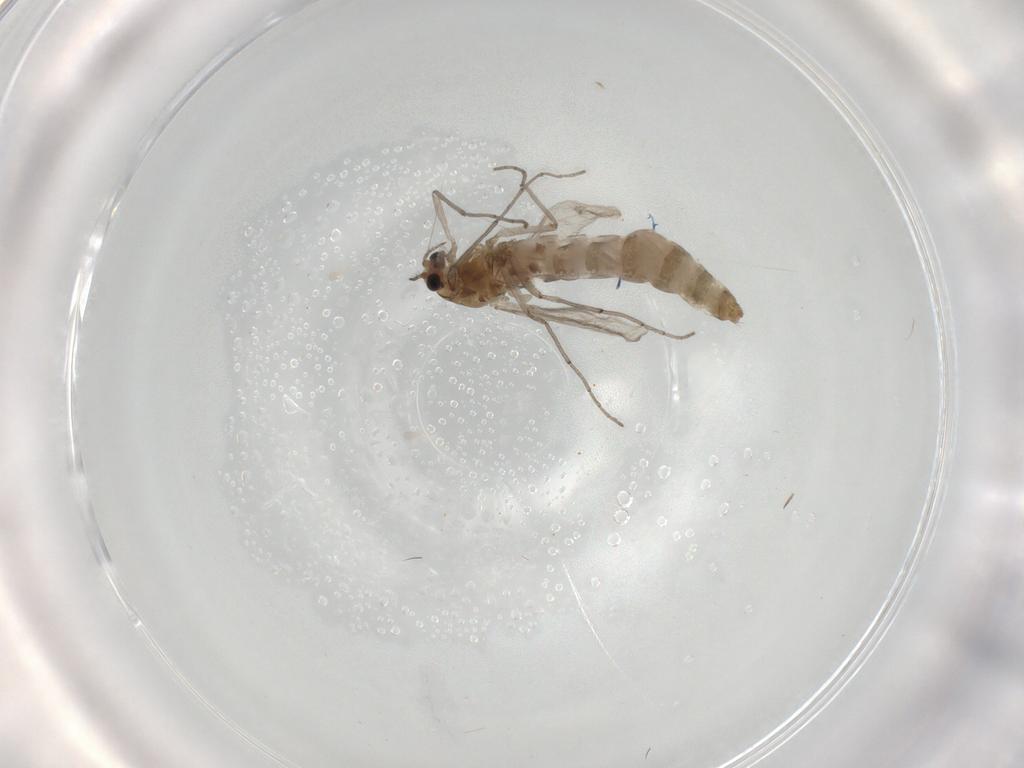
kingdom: Animalia
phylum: Arthropoda
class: Insecta
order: Diptera
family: Chironomidae
